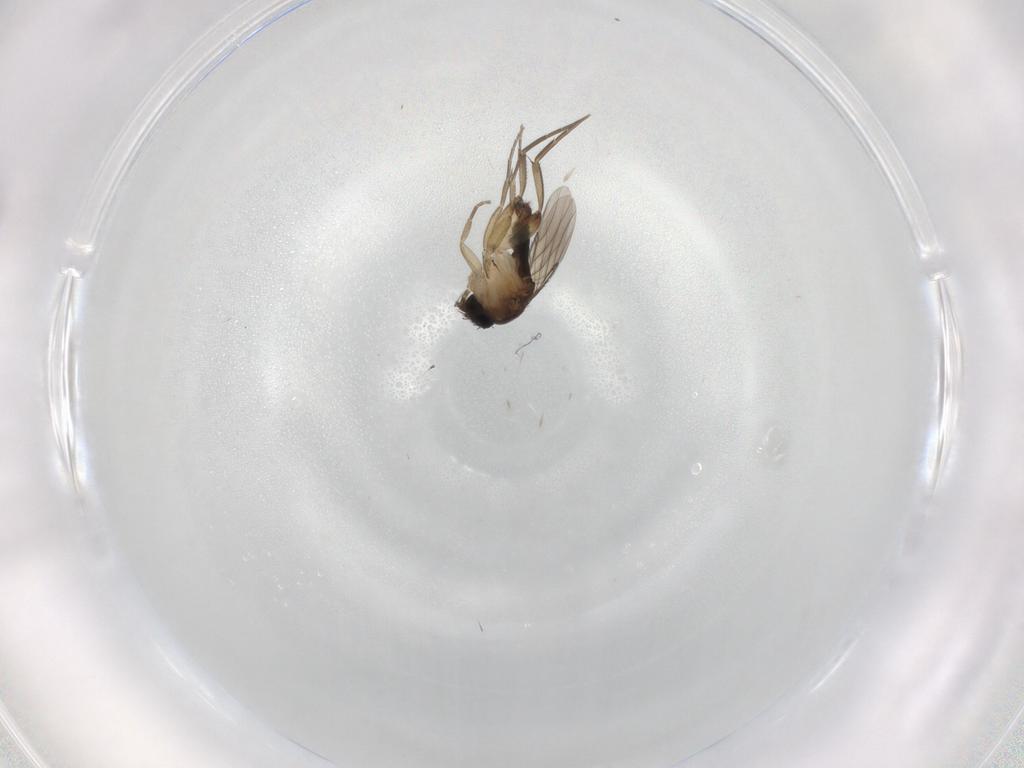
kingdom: Animalia
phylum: Arthropoda
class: Insecta
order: Diptera
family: Phoridae
